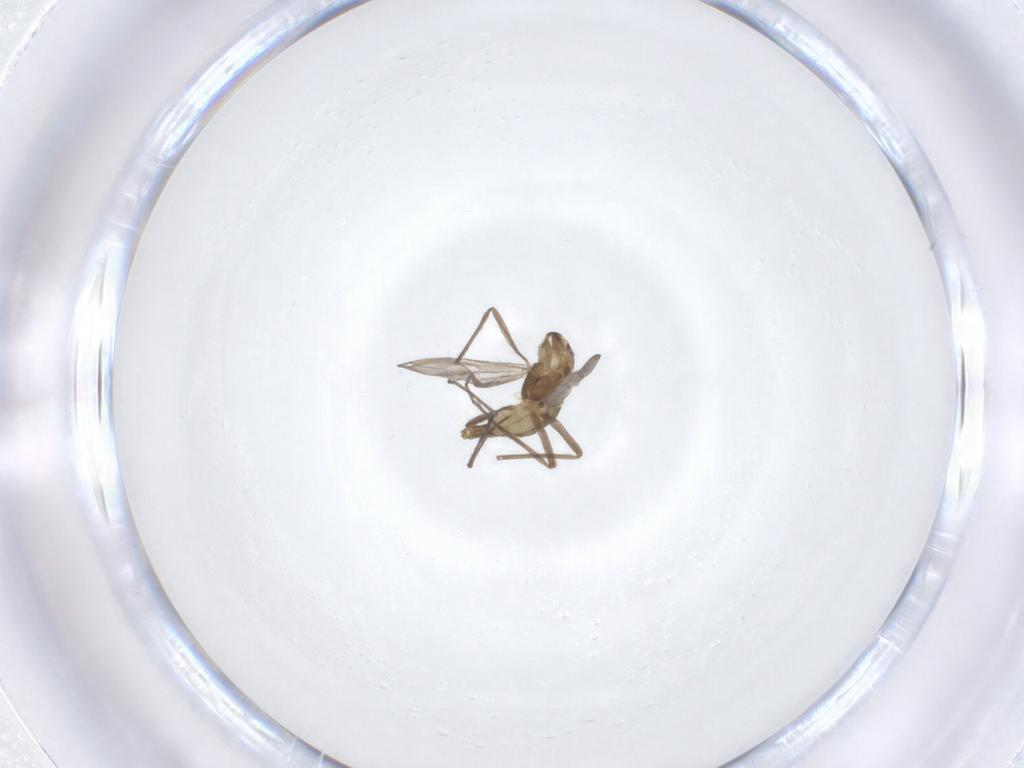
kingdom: Animalia
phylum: Arthropoda
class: Insecta
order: Diptera
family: Chironomidae
